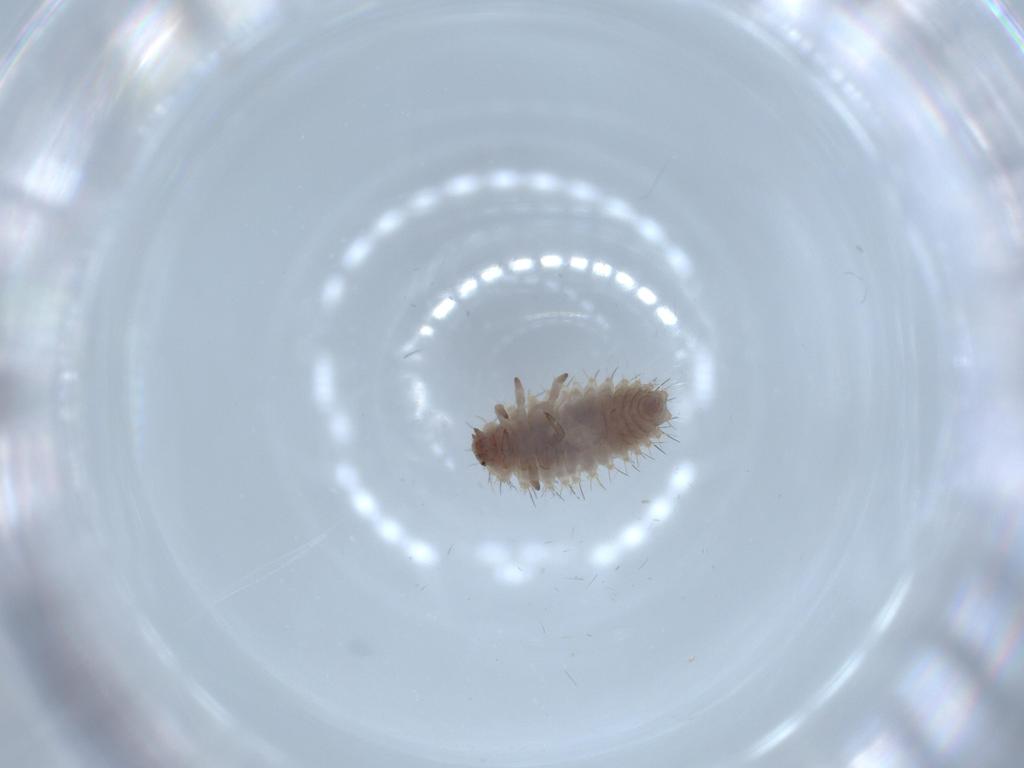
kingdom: Animalia
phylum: Arthropoda
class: Insecta
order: Coleoptera
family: Coccinellidae
